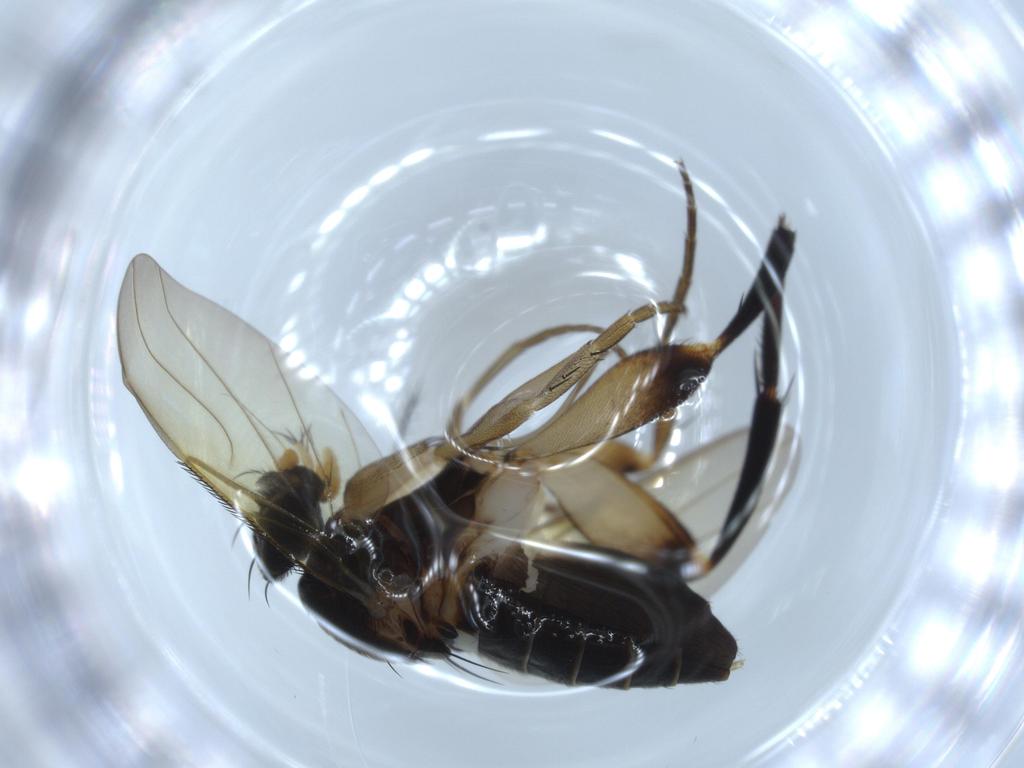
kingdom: Animalia
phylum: Arthropoda
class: Insecta
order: Diptera
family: Phoridae
